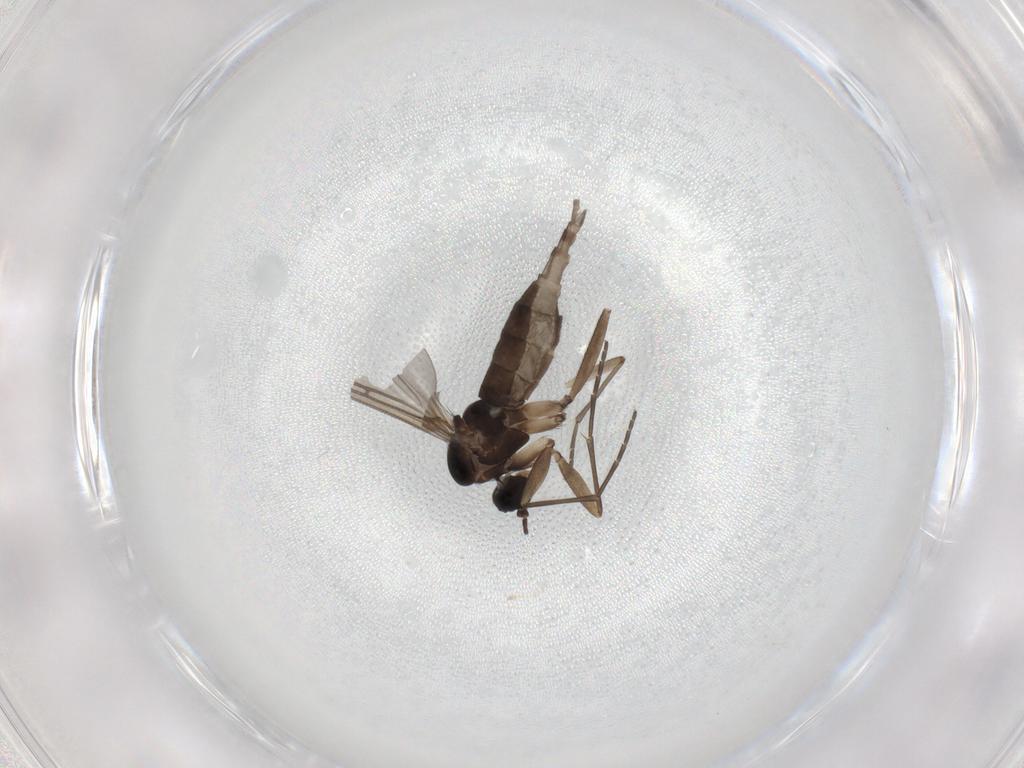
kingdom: Animalia
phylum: Arthropoda
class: Insecta
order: Diptera
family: Sciaridae
